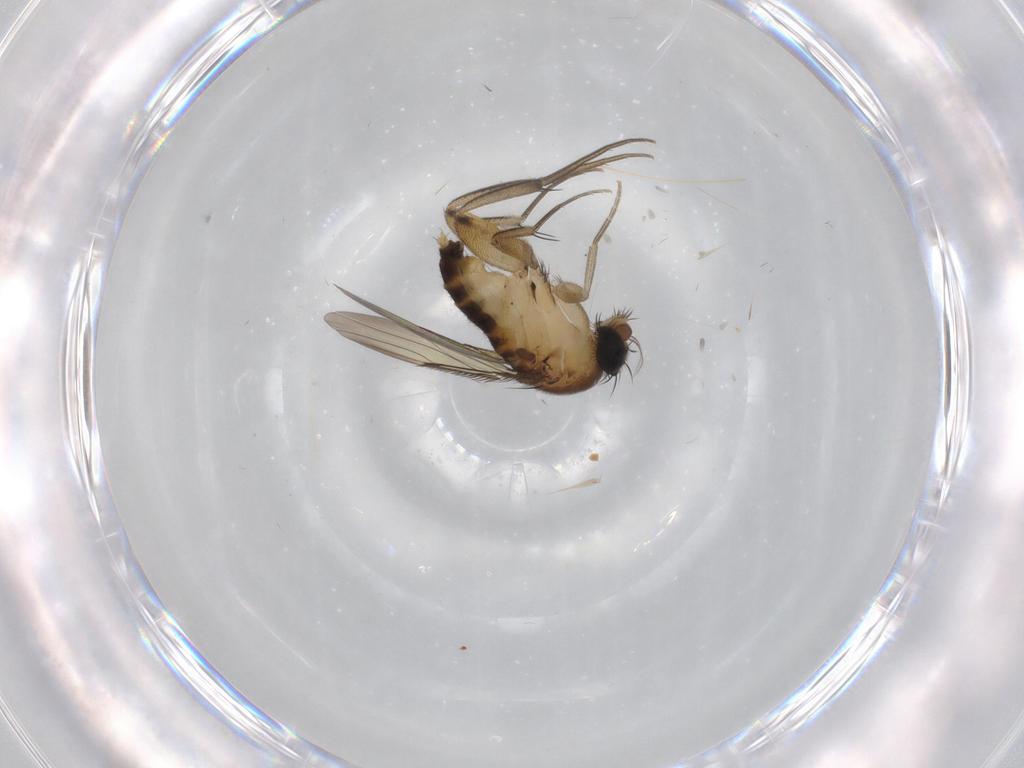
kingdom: Animalia
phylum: Arthropoda
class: Insecta
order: Diptera
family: Phoridae
